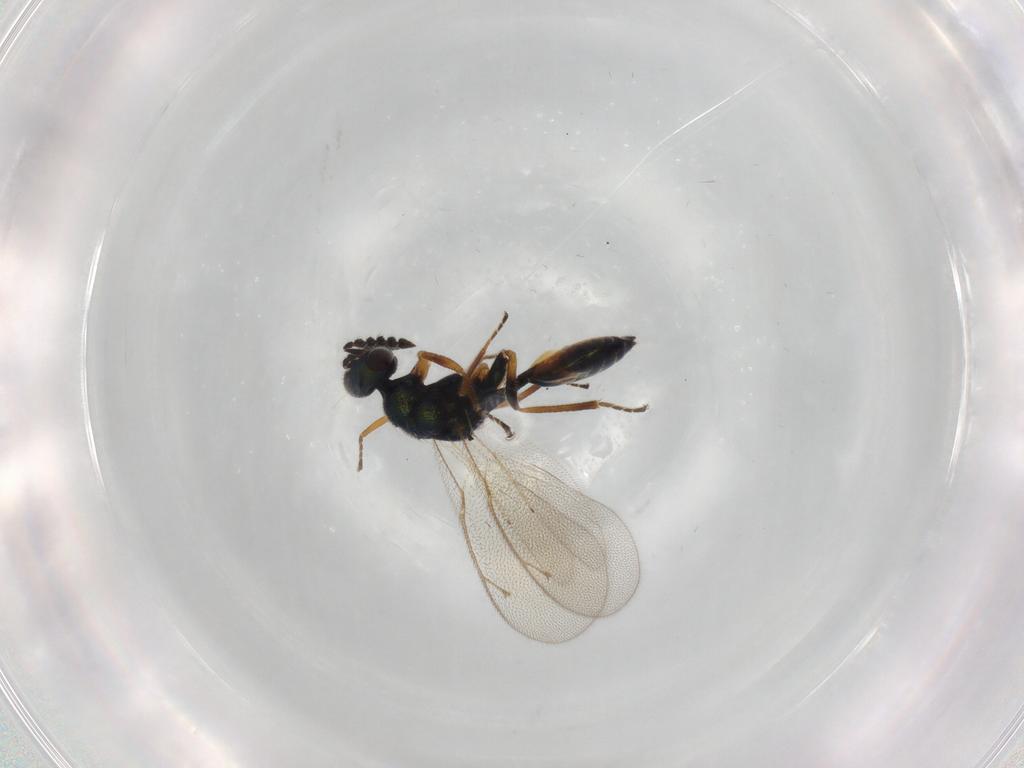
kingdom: Animalia
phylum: Arthropoda
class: Insecta
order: Hymenoptera
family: Eulophidae
